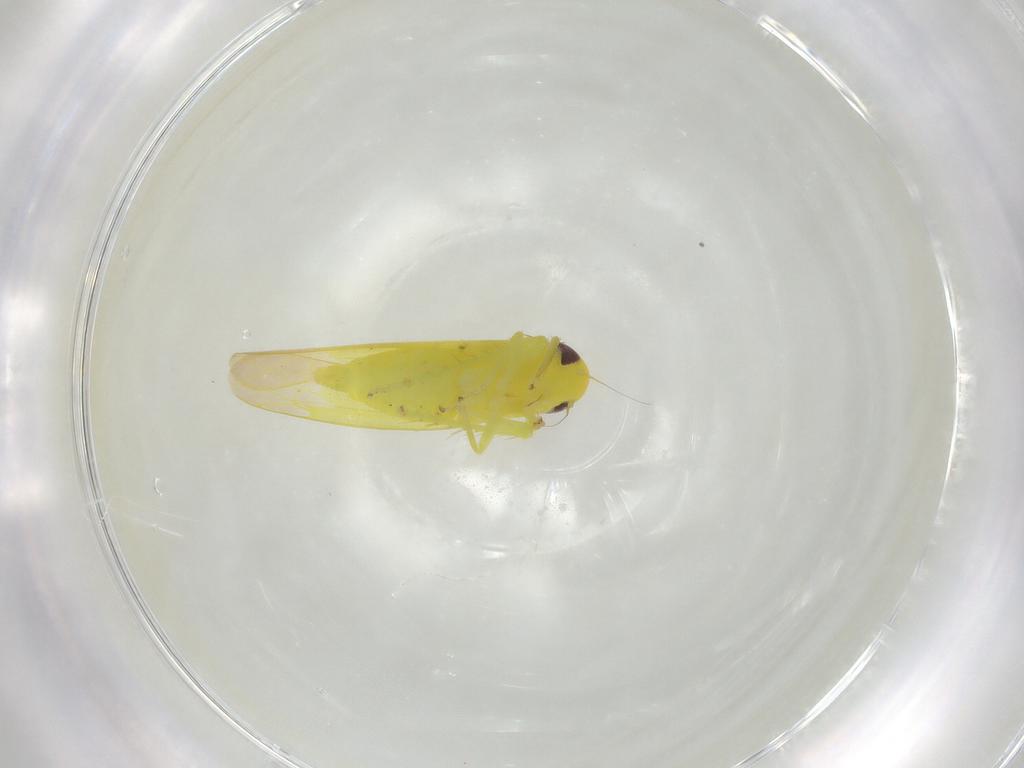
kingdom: Animalia
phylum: Arthropoda
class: Insecta
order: Hemiptera
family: Cicadellidae
